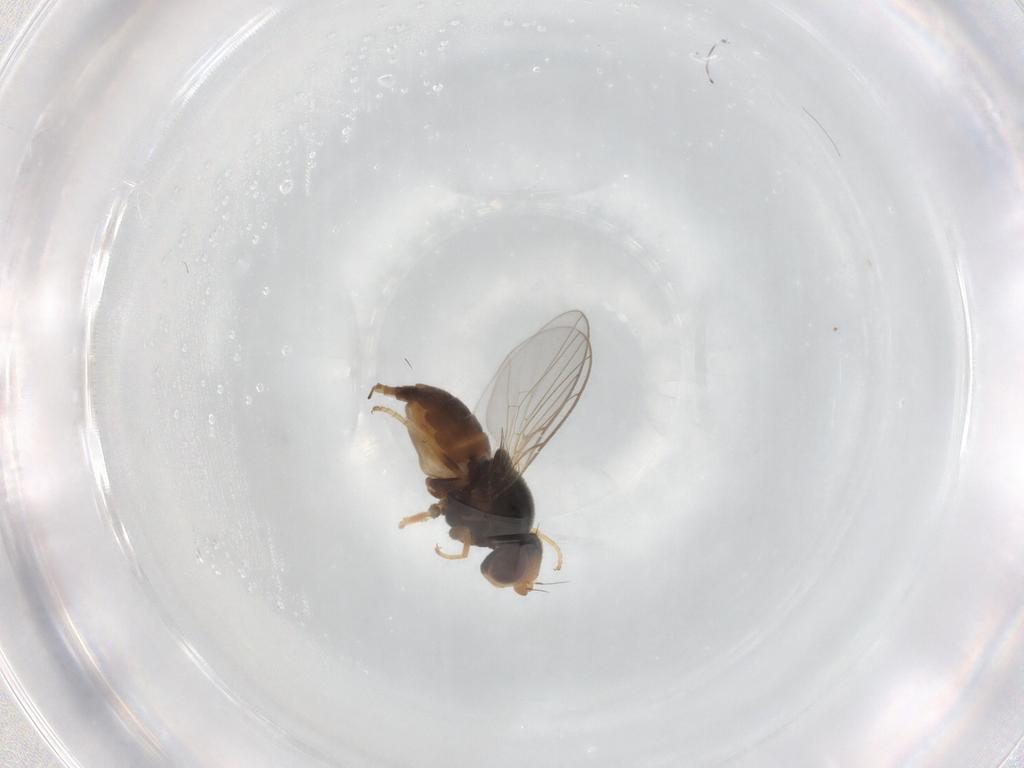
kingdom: Animalia
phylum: Arthropoda
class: Insecta
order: Diptera
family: Chloropidae
